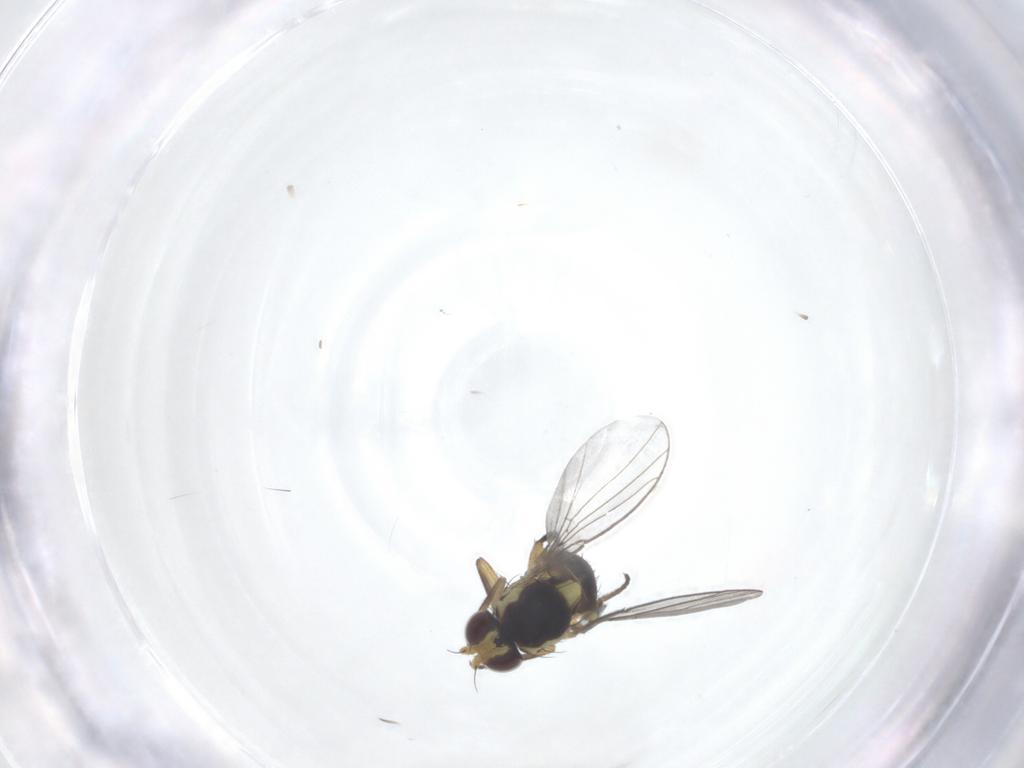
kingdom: Animalia
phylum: Arthropoda
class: Insecta
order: Diptera
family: Agromyzidae
